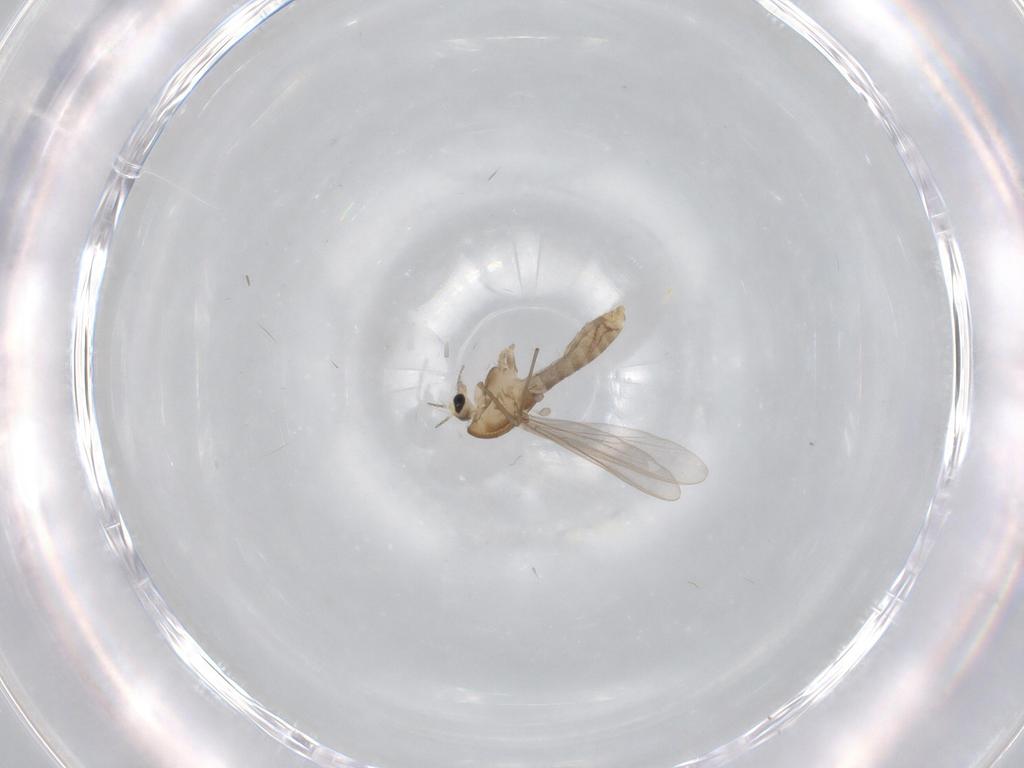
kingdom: Animalia
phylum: Arthropoda
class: Insecta
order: Diptera
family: Chironomidae
